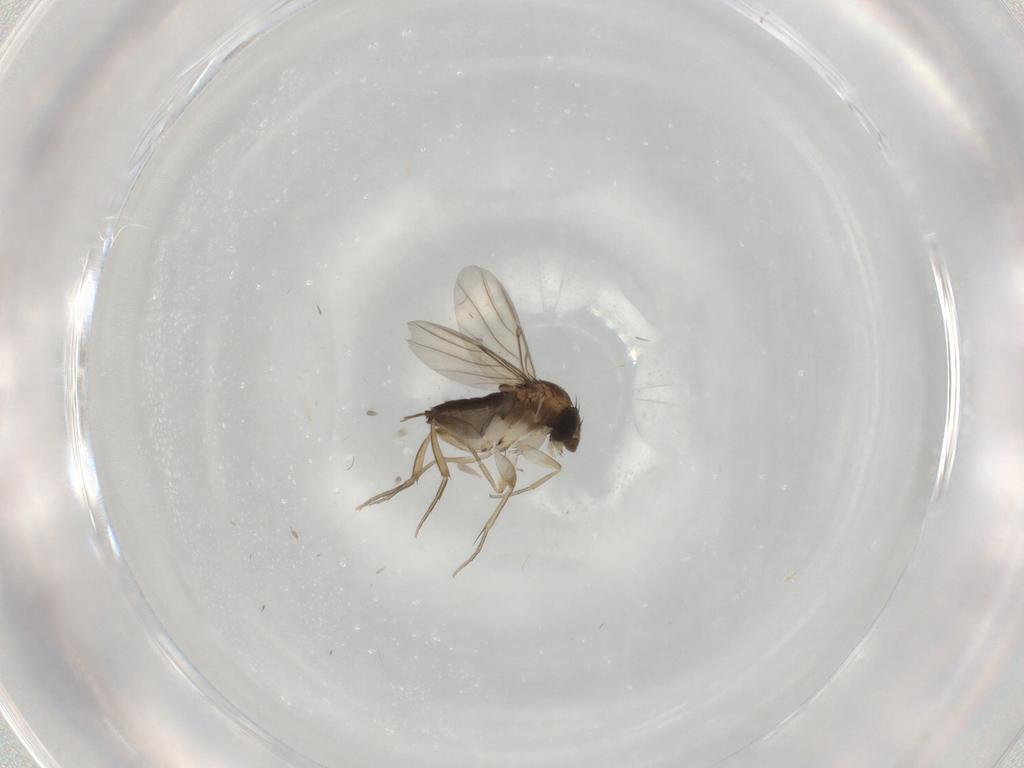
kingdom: Animalia
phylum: Arthropoda
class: Insecta
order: Diptera
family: Phoridae
